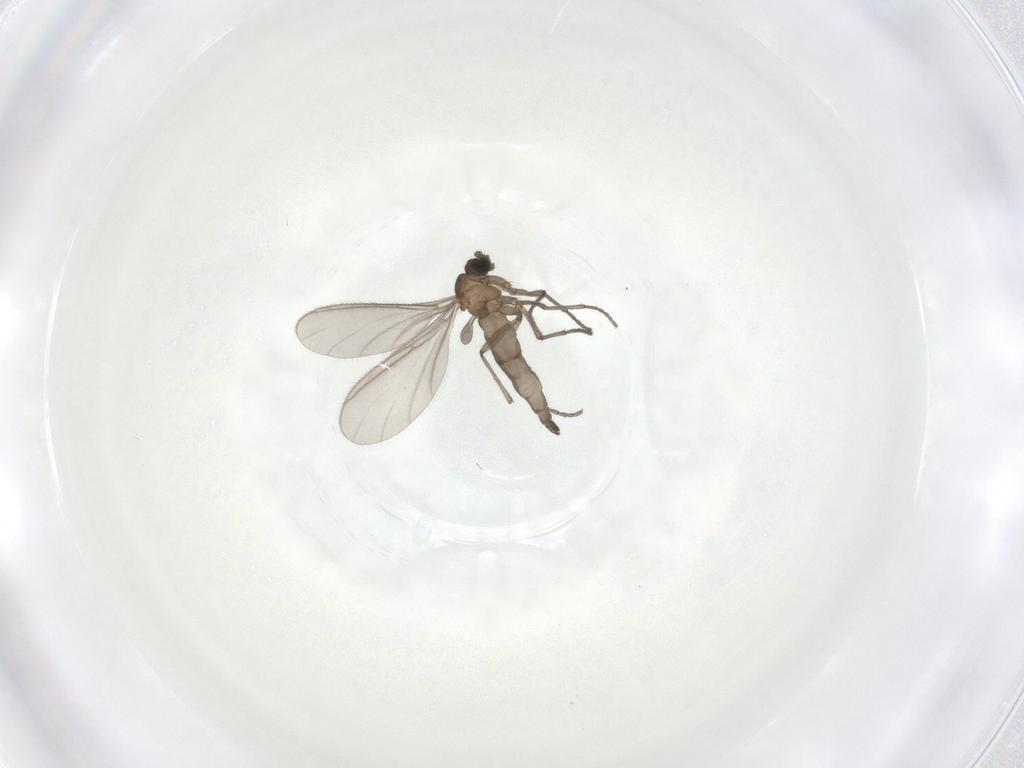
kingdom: Animalia
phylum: Arthropoda
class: Insecta
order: Diptera
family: Sciaridae
